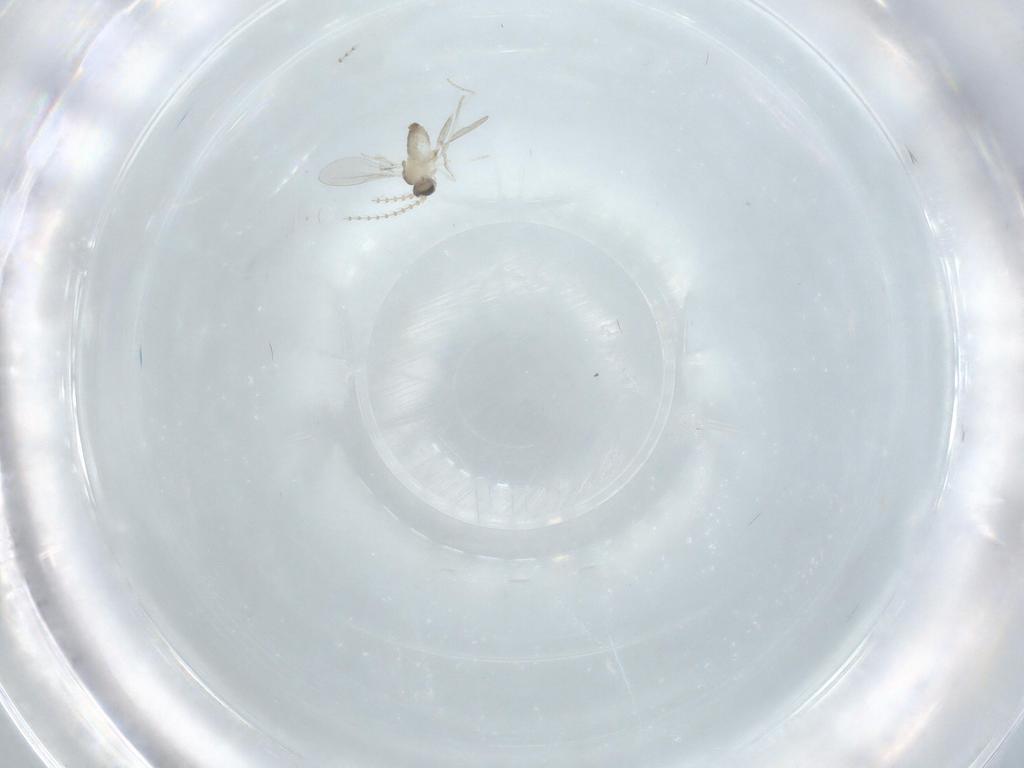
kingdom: Animalia
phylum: Arthropoda
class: Insecta
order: Diptera
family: Cecidomyiidae
